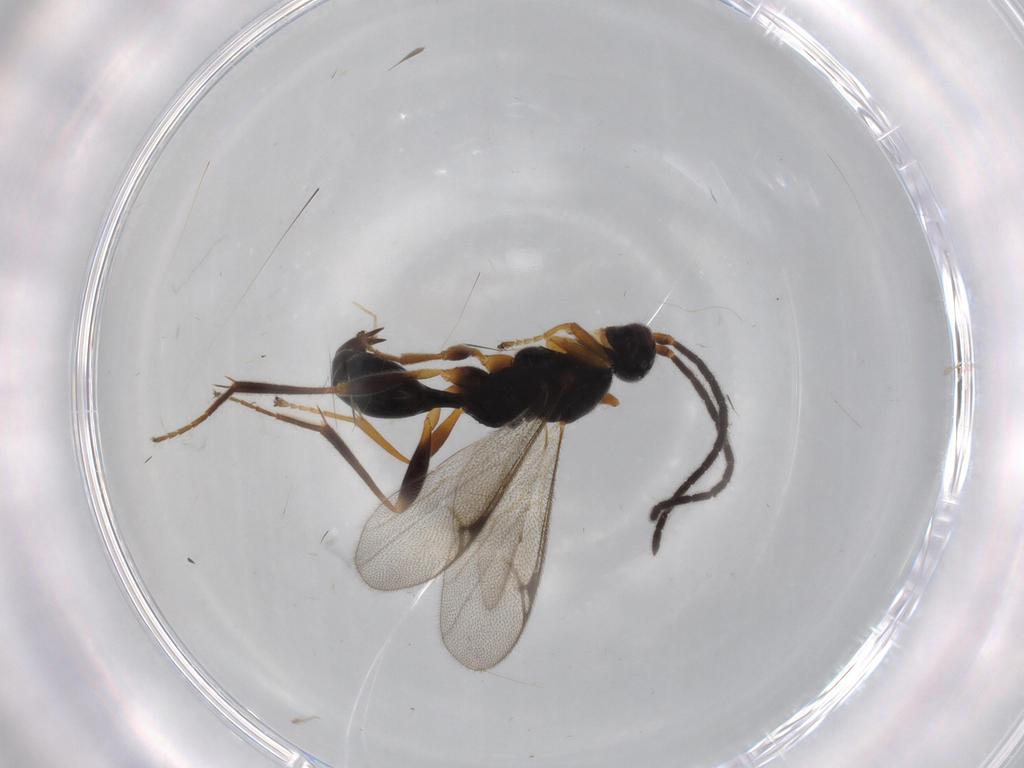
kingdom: Animalia
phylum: Arthropoda
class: Insecta
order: Hymenoptera
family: Proctotrupidae
